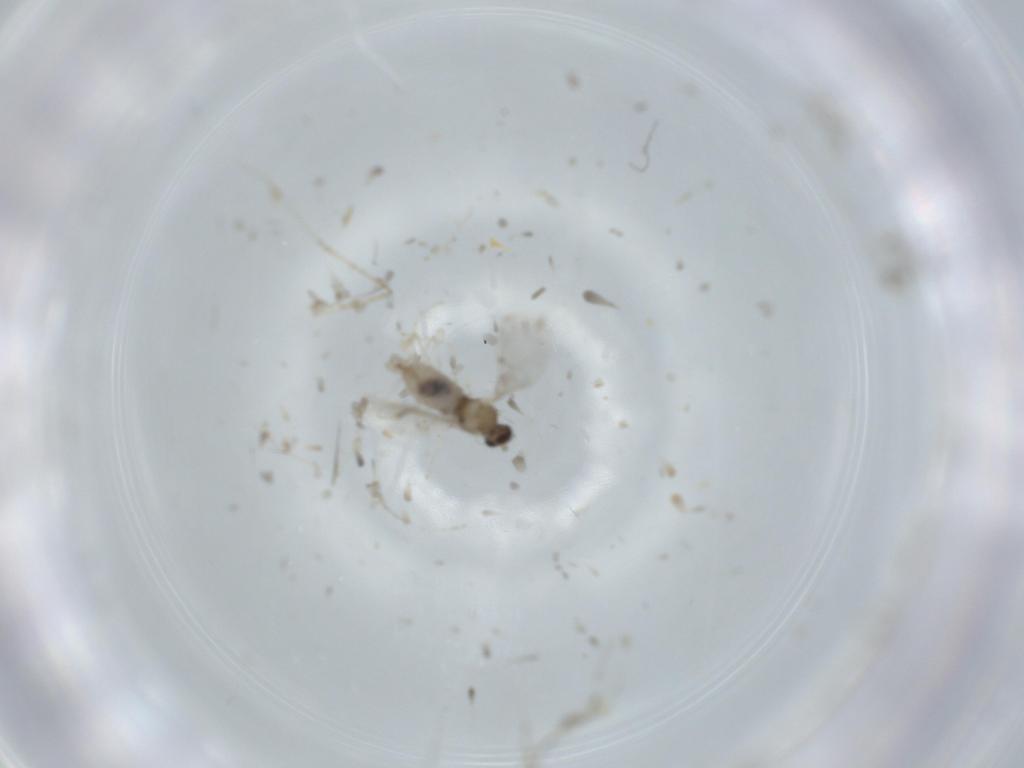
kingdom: Animalia
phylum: Arthropoda
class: Insecta
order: Diptera
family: Cecidomyiidae
